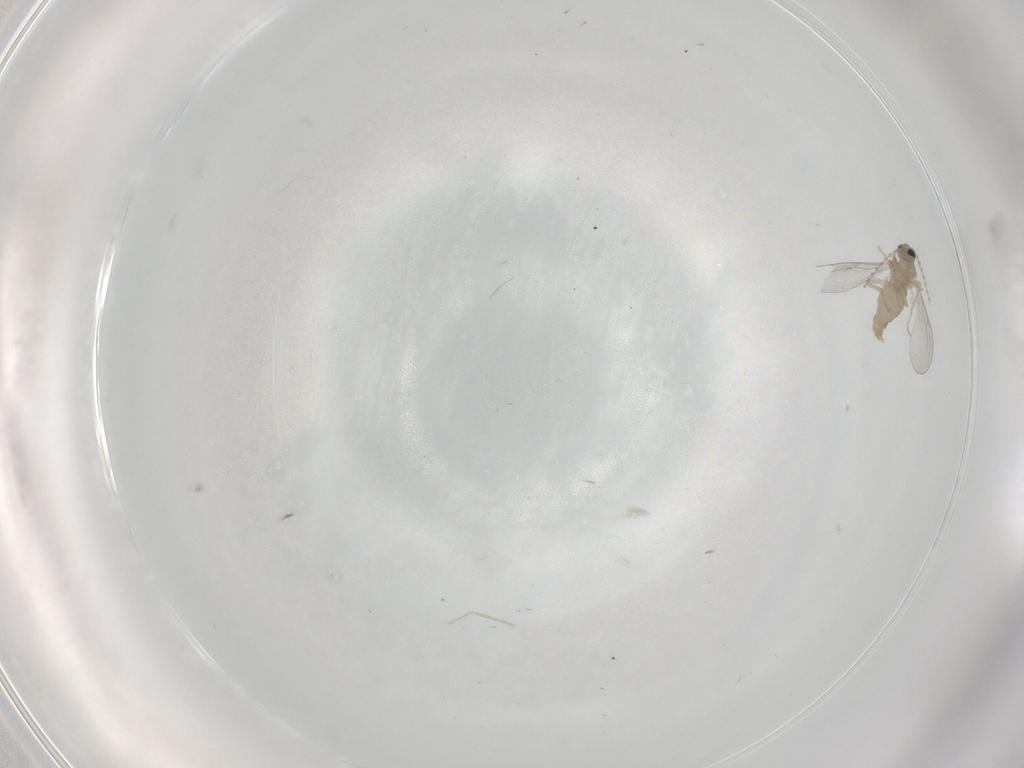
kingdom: Animalia
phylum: Arthropoda
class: Insecta
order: Diptera
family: Cecidomyiidae
